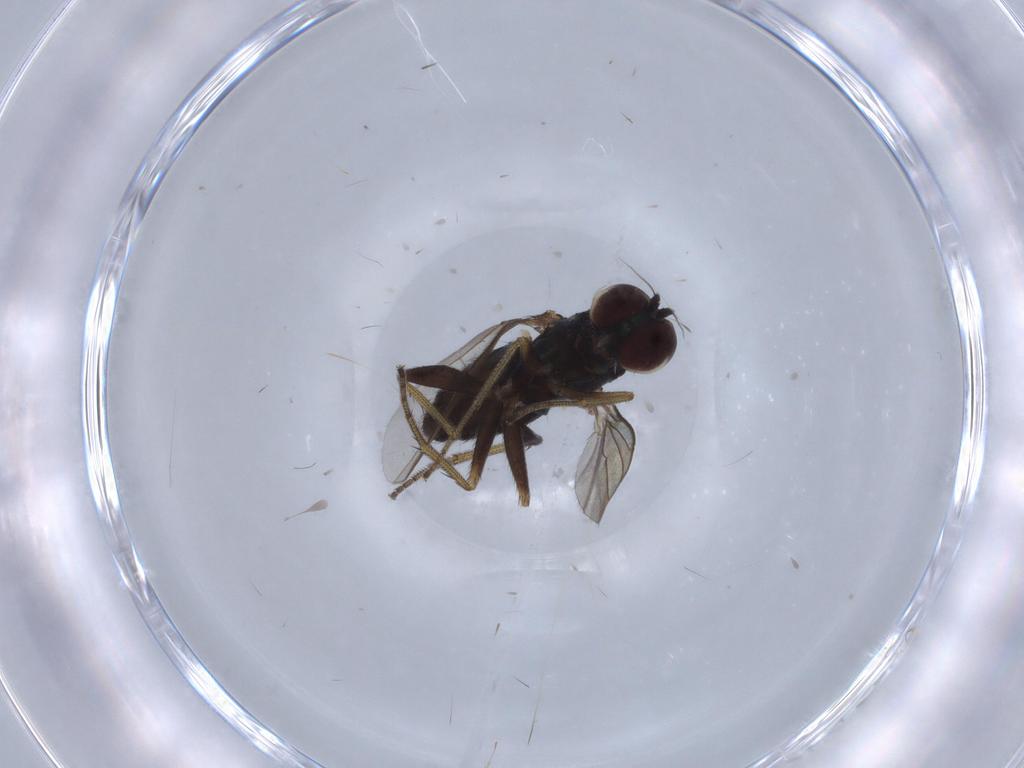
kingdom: Animalia
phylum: Arthropoda
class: Insecta
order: Diptera
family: Dolichopodidae
